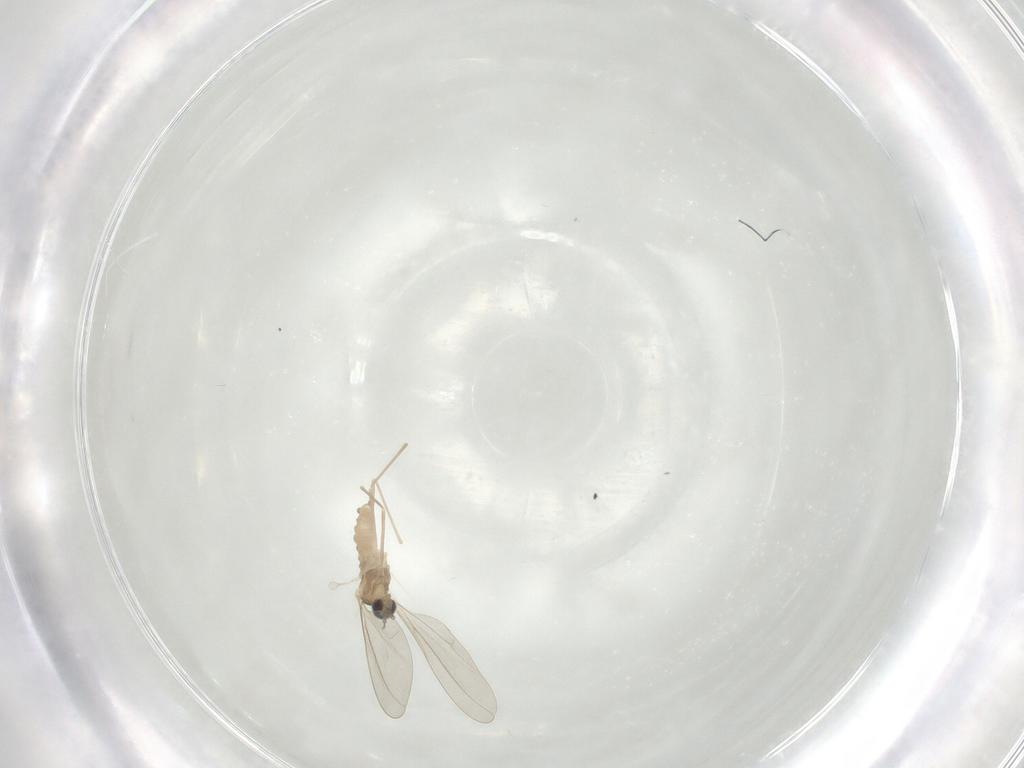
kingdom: Animalia
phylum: Arthropoda
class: Insecta
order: Diptera
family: Cecidomyiidae
